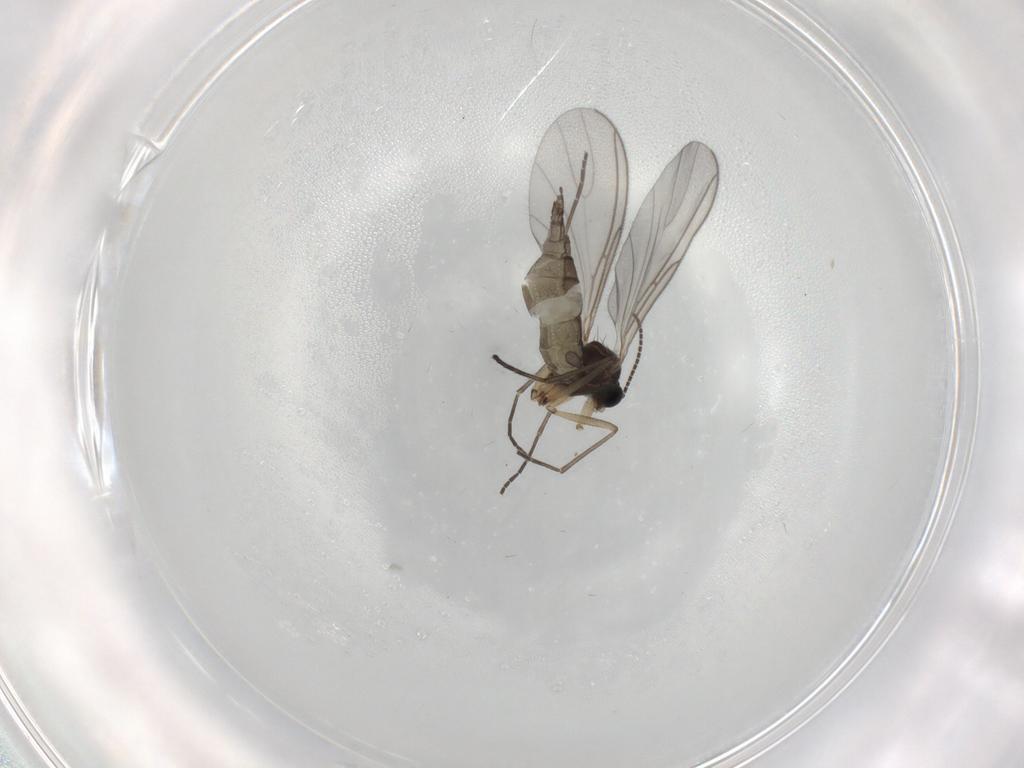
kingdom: Animalia
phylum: Arthropoda
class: Insecta
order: Diptera
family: Sciaridae
